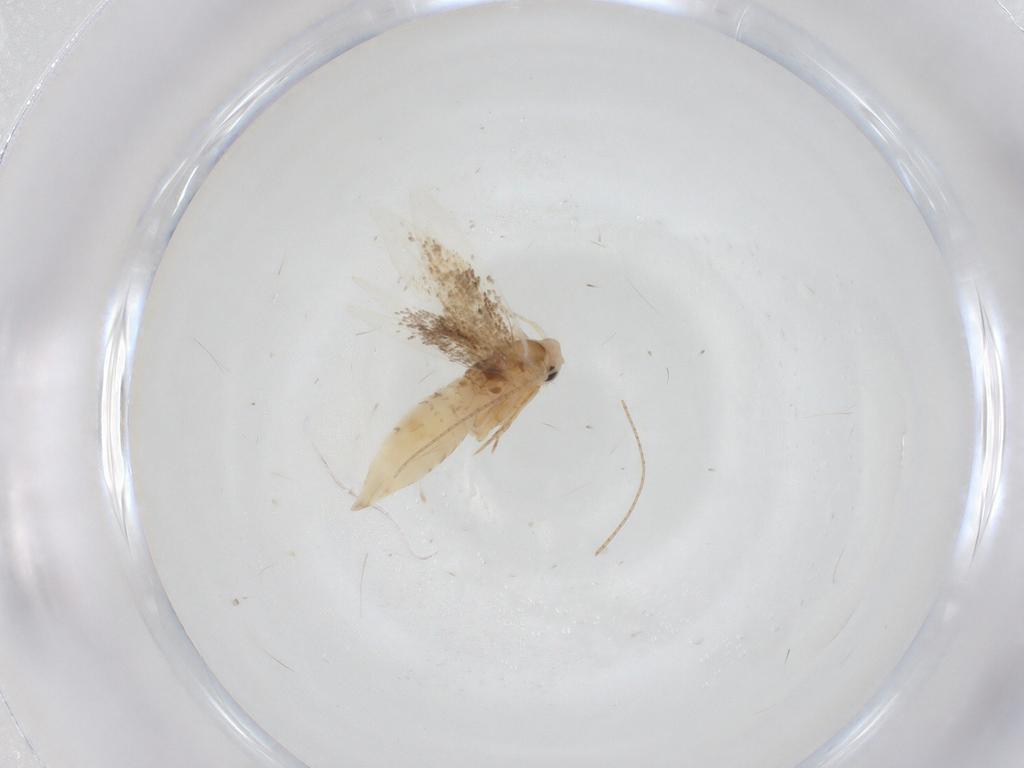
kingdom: Animalia
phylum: Arthropoda
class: Insecta
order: Lepidoptera
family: Bucculatricidae
